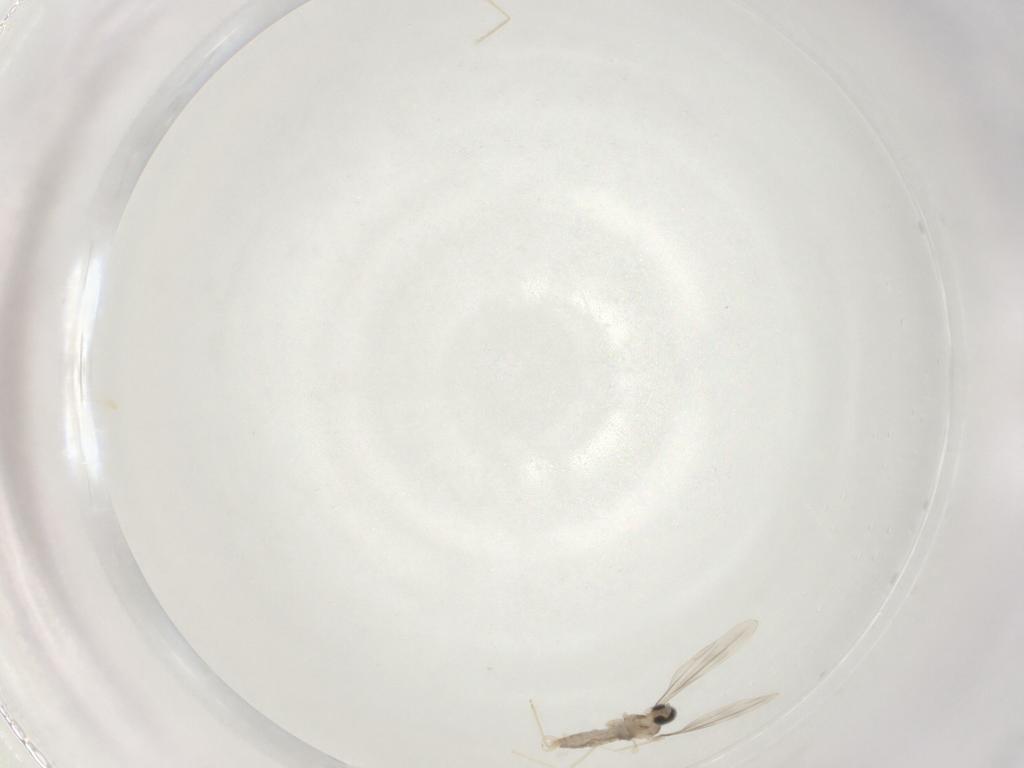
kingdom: Animalia
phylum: Arthropoda
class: Insecta
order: Diptera
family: Cecidomyiidae
